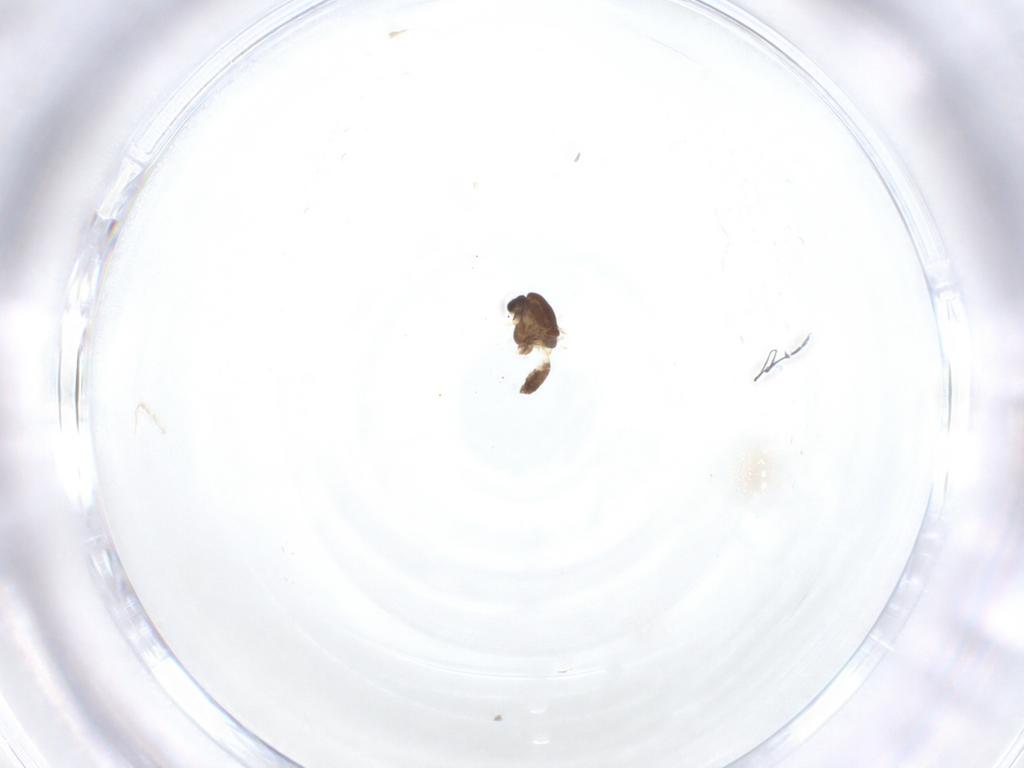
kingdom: Animalia
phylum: Arthropoda
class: Insecta
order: Diptera
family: Chironomidae
